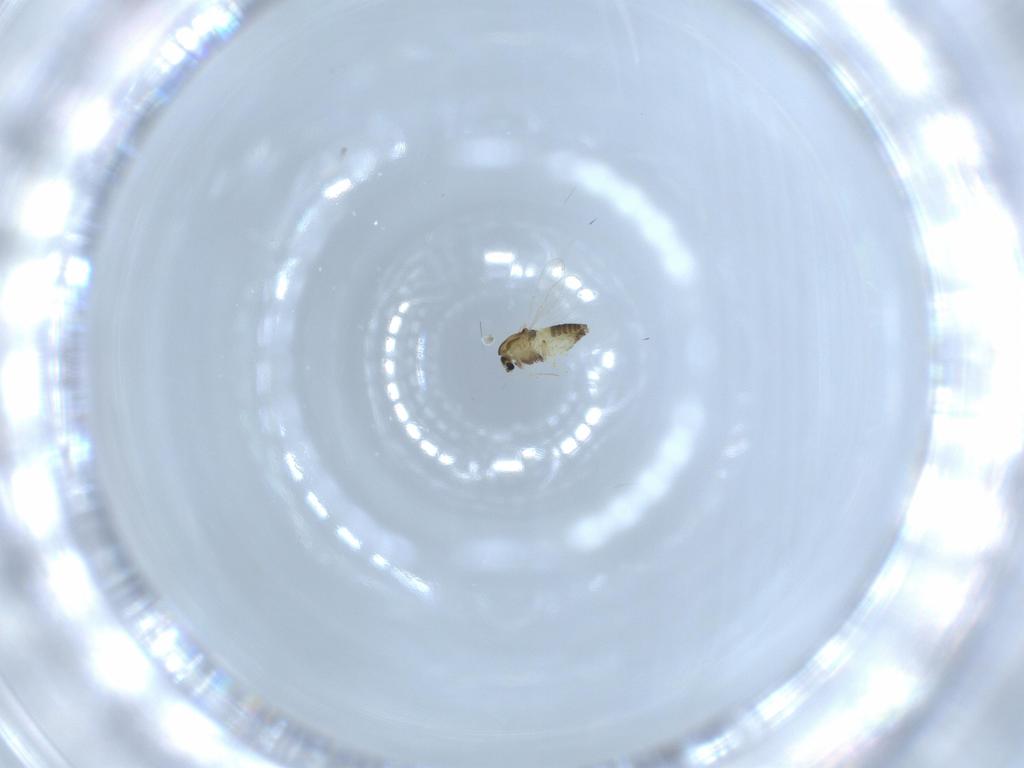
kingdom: Animalia
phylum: Arthropoda
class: Insecta
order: Diptera
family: Chironomidae
